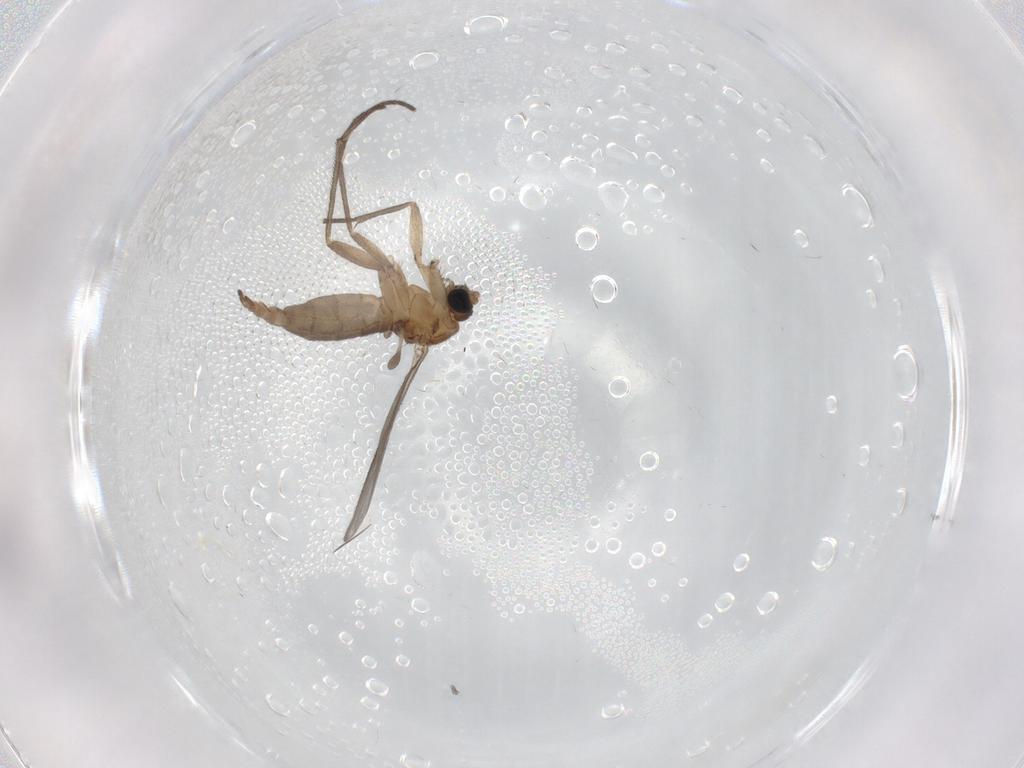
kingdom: Animalia
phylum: Arthropoda
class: Insecta
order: Diptera
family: Sciaridae
